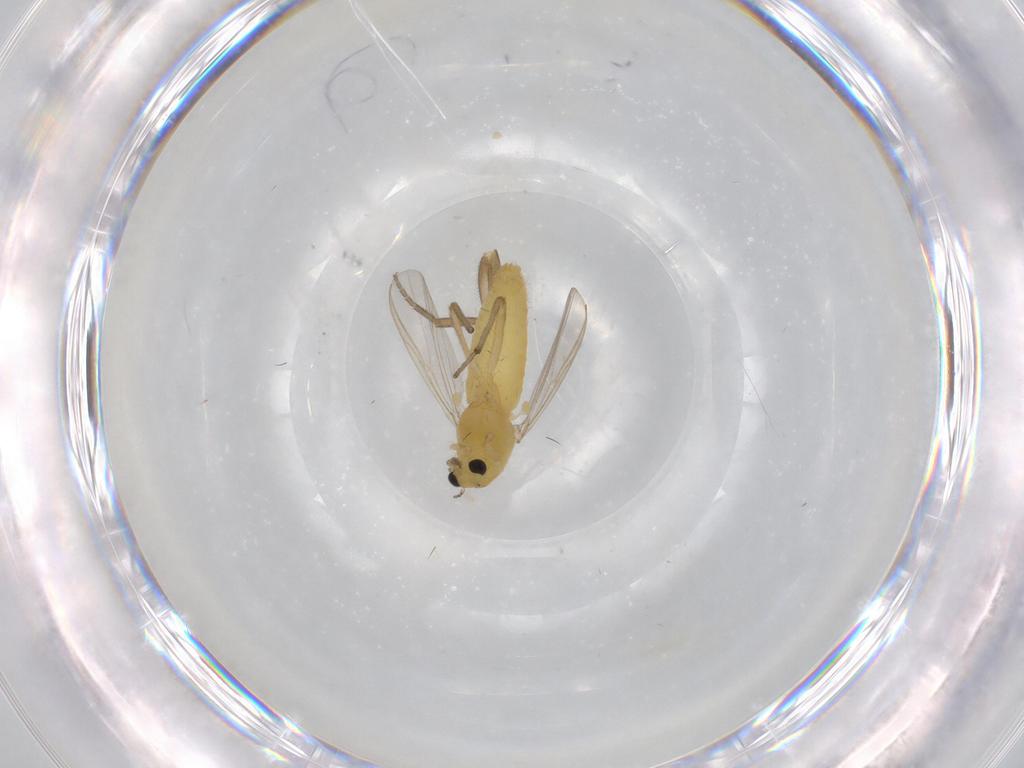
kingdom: Animalia
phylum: Arthropoda
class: Insecta
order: Diptera
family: Chironomidae
